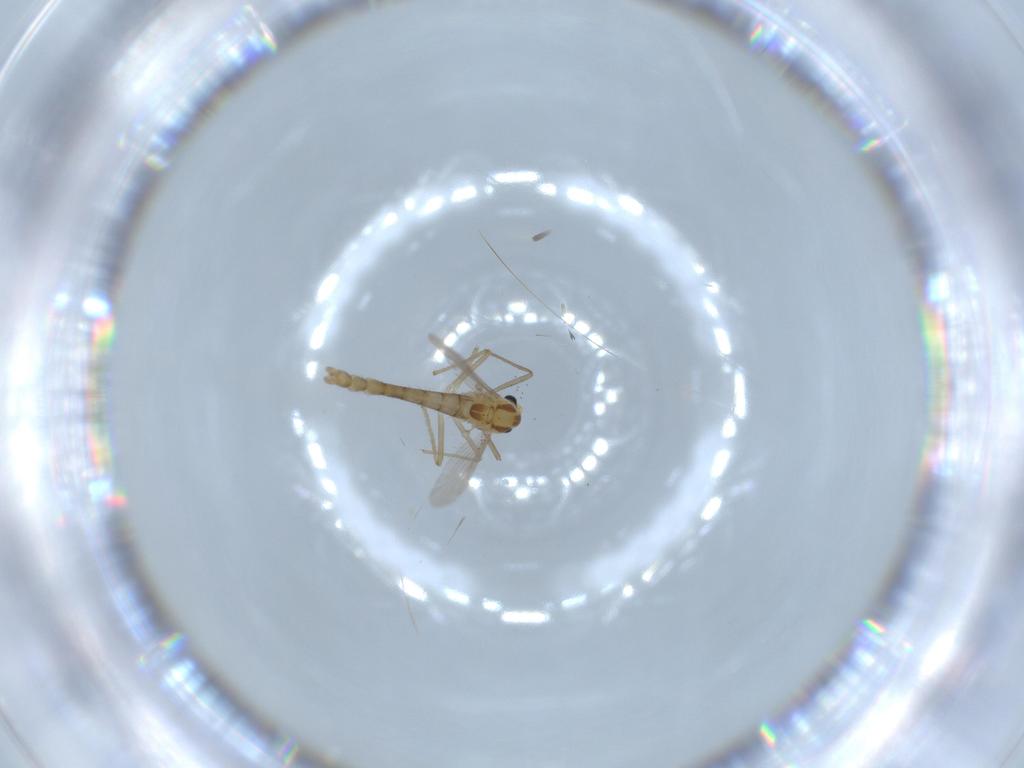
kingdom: Animalia
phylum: Arthropoda
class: Insecta
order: Diptera
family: Chironomidae
